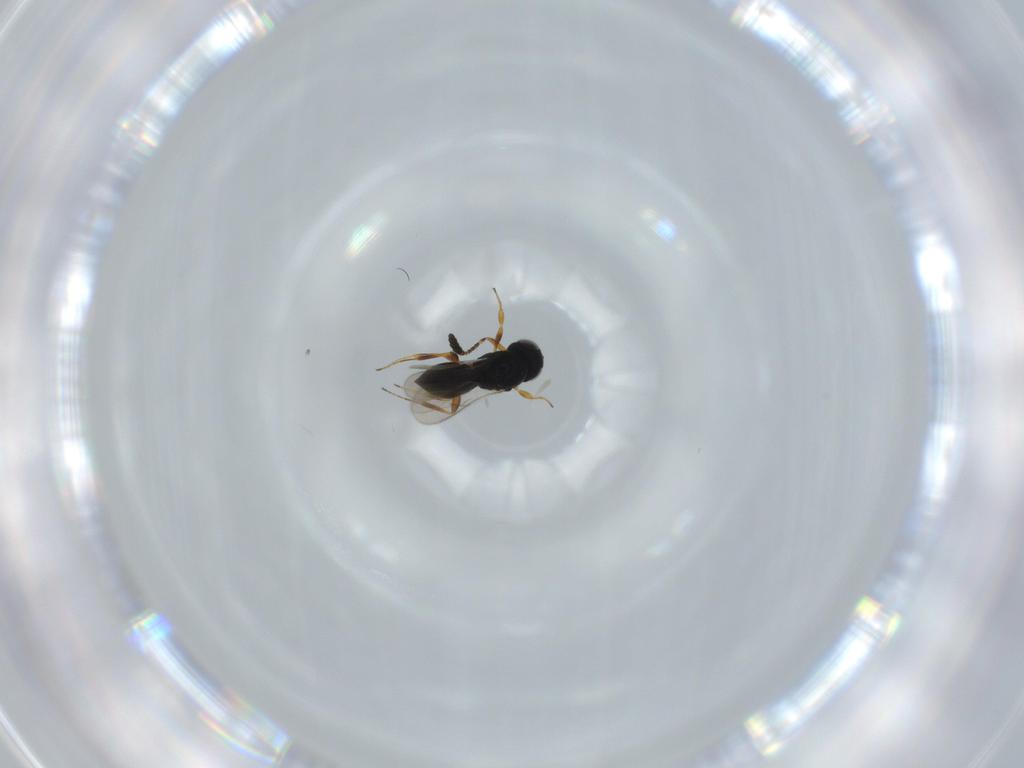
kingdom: Animalia
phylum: Arthropoda
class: Insecta
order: Hymenoptera
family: Scelionidae
